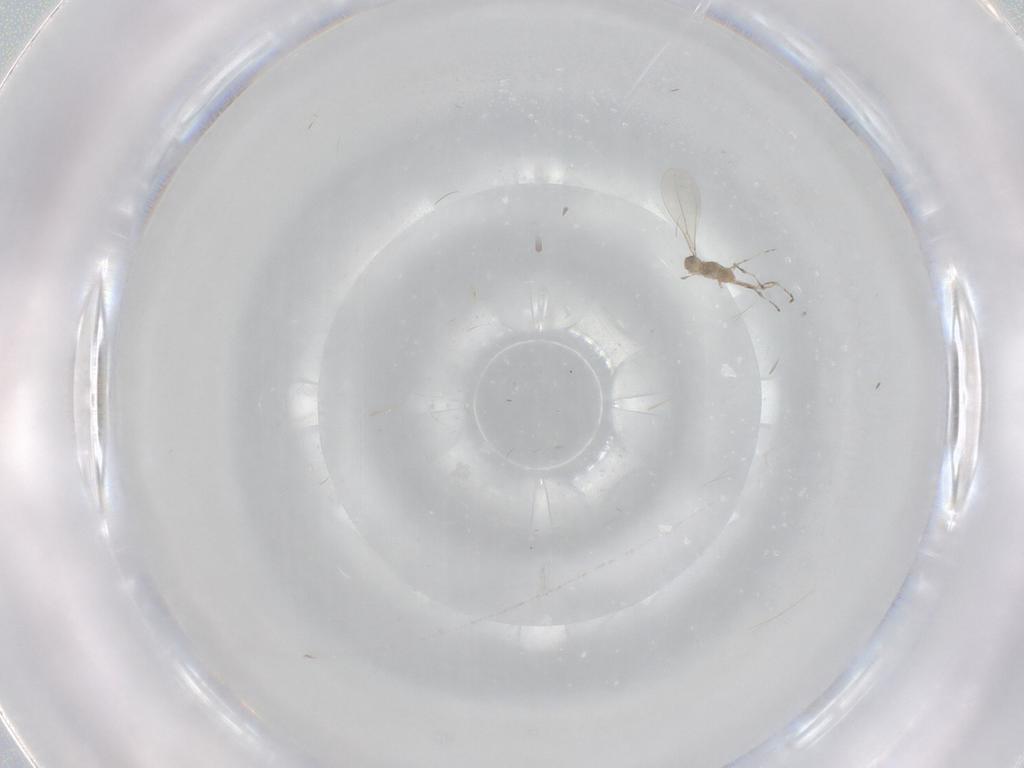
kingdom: Animalia
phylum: Arthropoda
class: Insecta
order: Diptera
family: Cecidomyiidae
